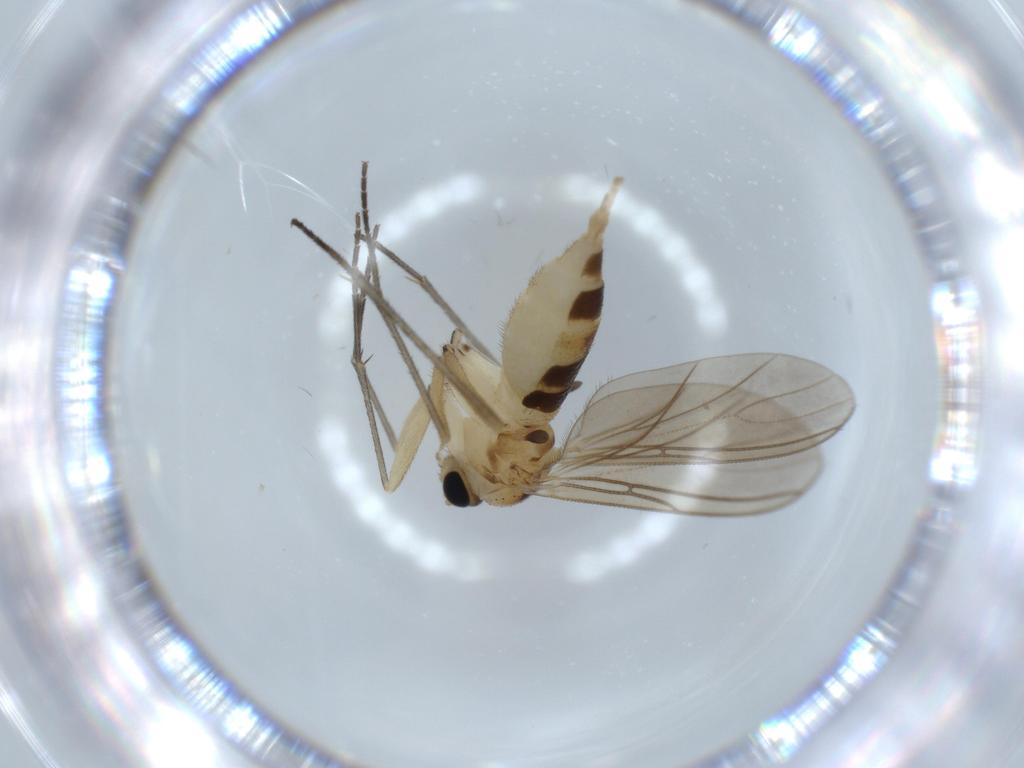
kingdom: Animalia
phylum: Arthropoda
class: Insecta
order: Diptera
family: Sciaridae
